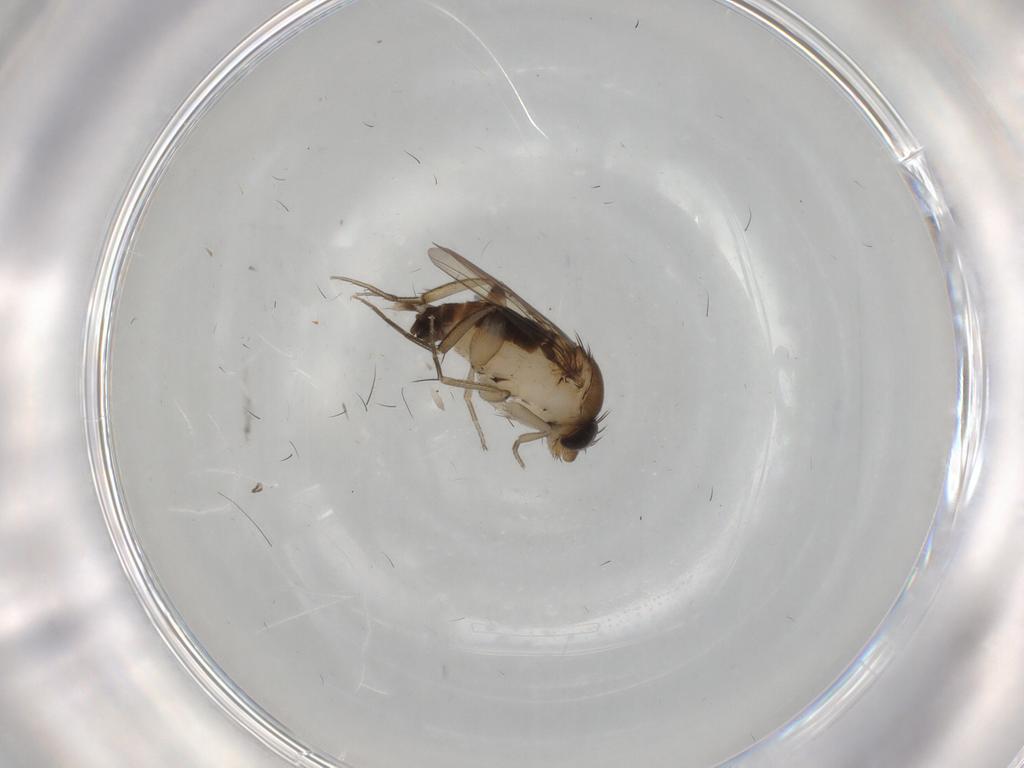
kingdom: Animalia
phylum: Arthropoda
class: Insecta
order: Diptera
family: Phoridae
